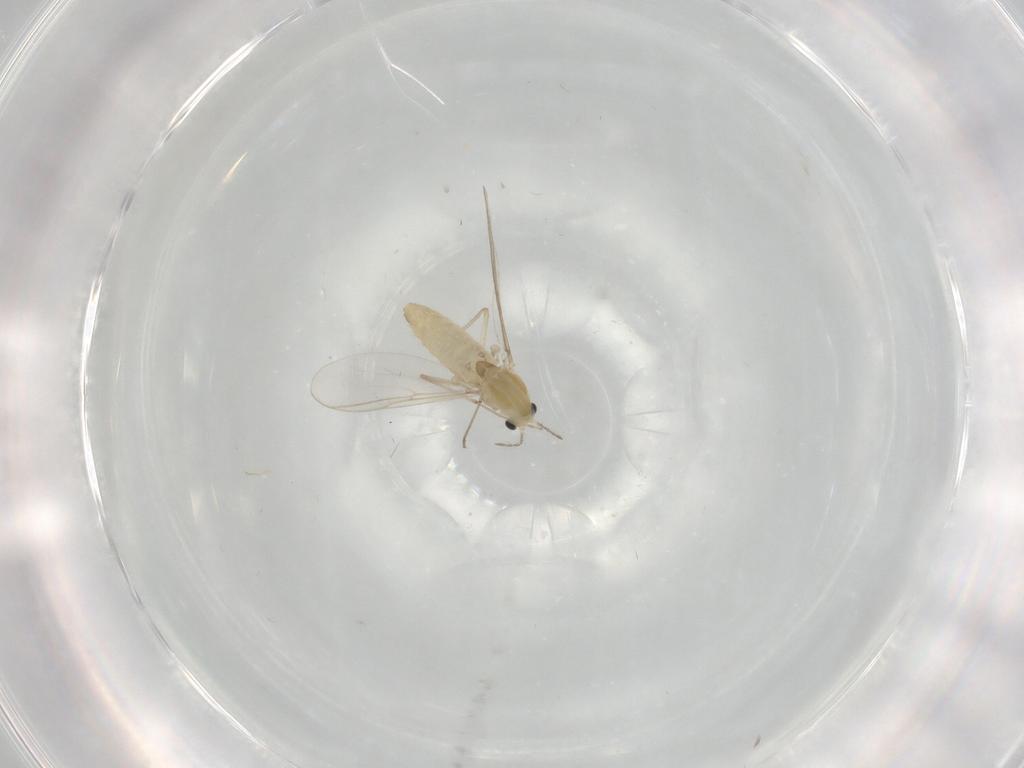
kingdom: Animalia
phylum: Arthropoda
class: Insecta
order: Diptera
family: Chironomidae
